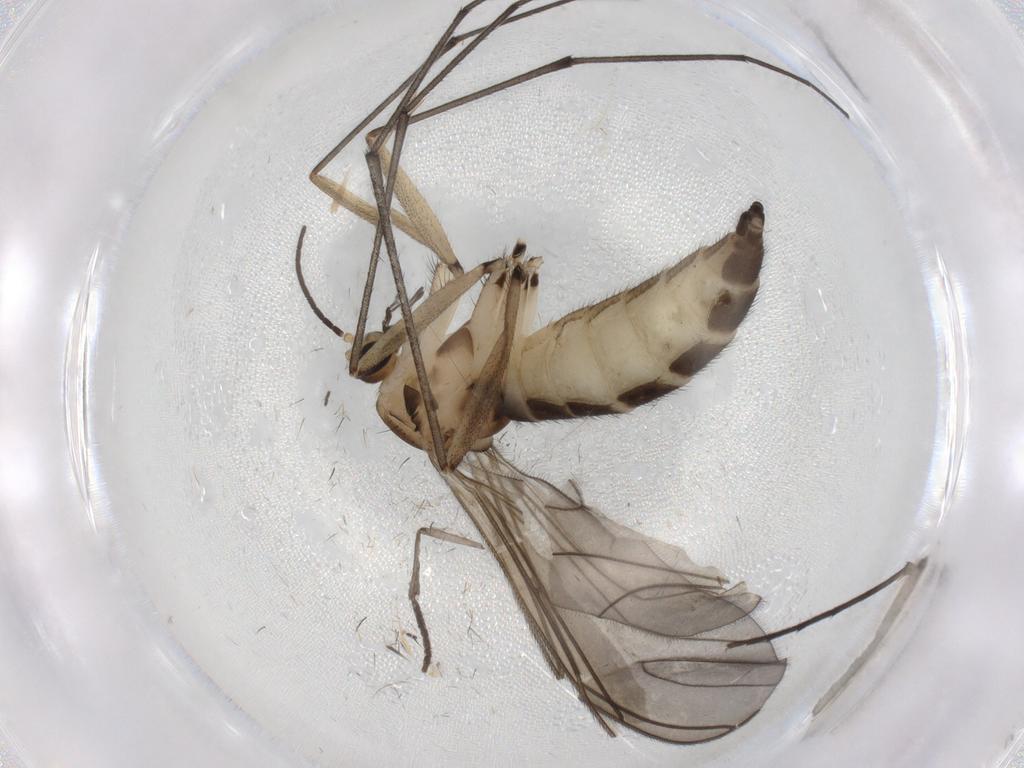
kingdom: Animalia
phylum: Arthropoda
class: Insecta
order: Diptera
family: Sciaridae
